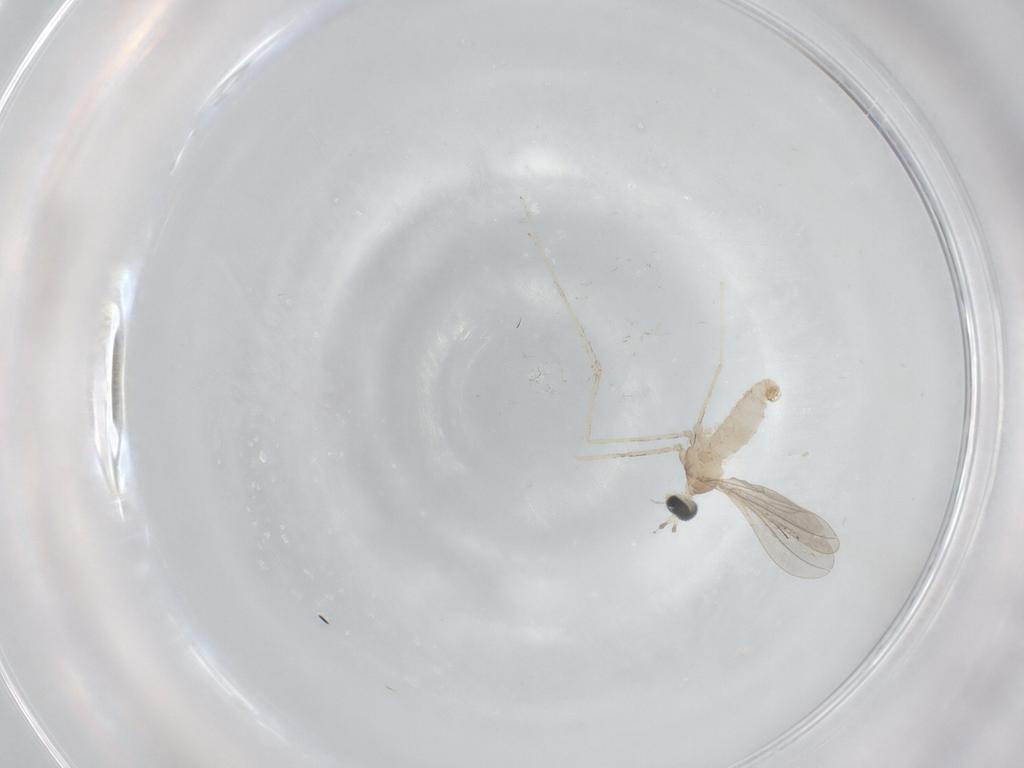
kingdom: Animalia
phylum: Arthropoda
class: Insecta
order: Diptera
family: Cecidomyiidae
